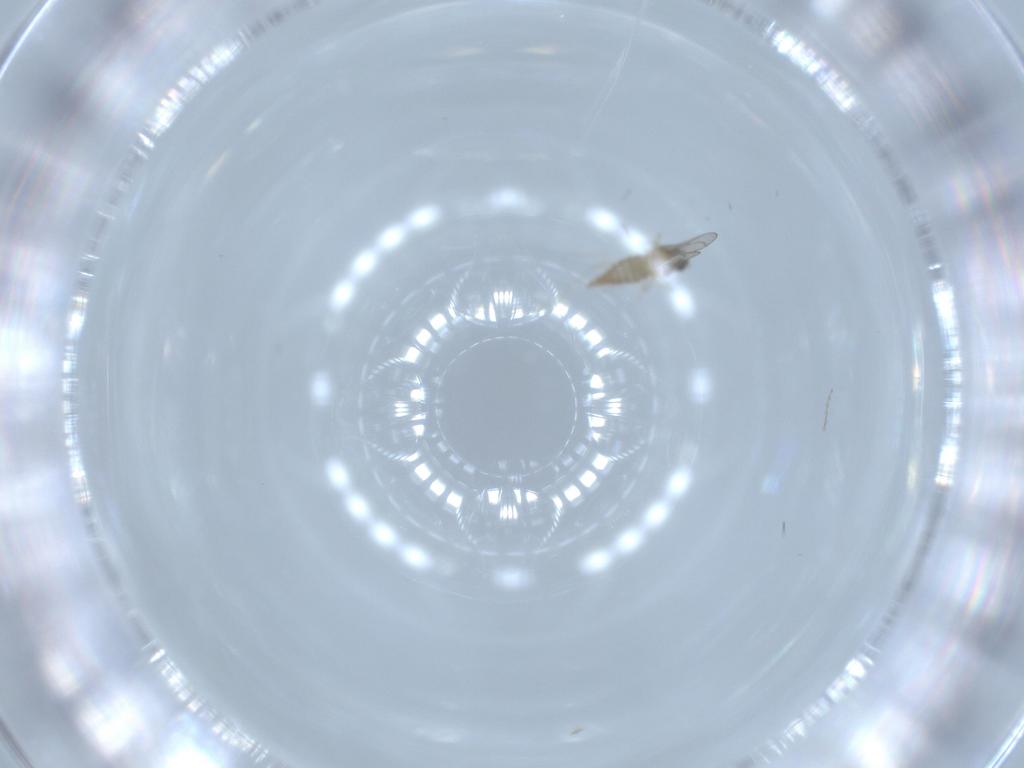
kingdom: Animalia
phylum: Arthropoda
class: Insecta
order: Diptera
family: Cecidomyiidae
